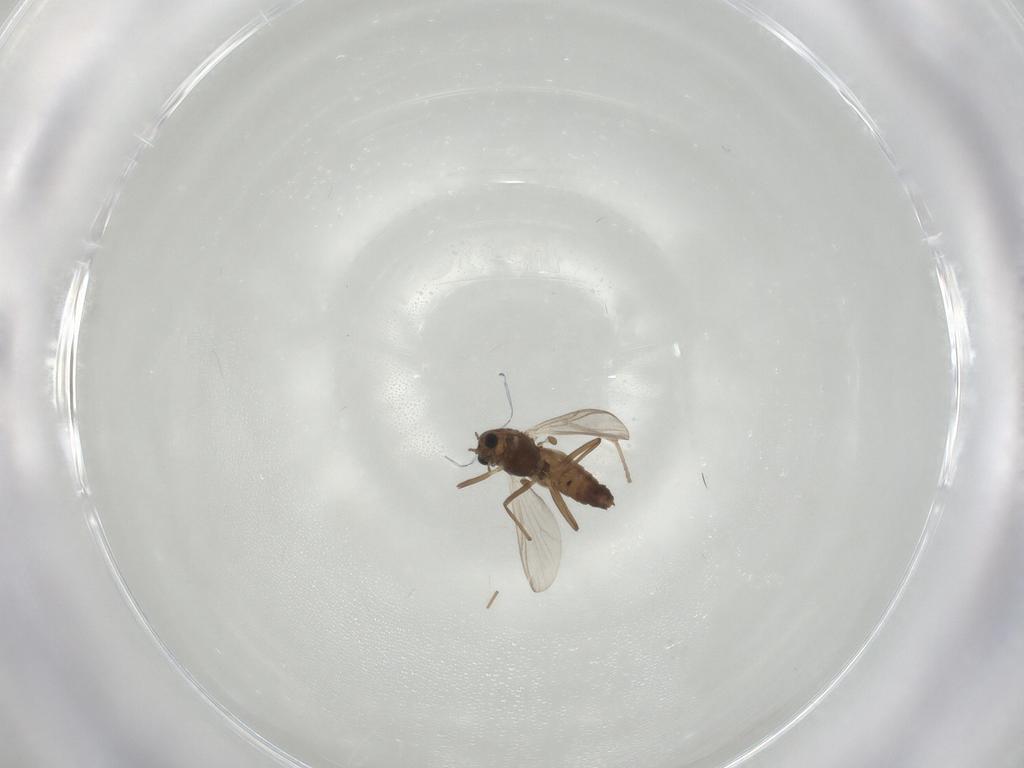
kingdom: Animalia
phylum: Arthropoda
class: Insecta
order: Diptera
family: Chironomidae
